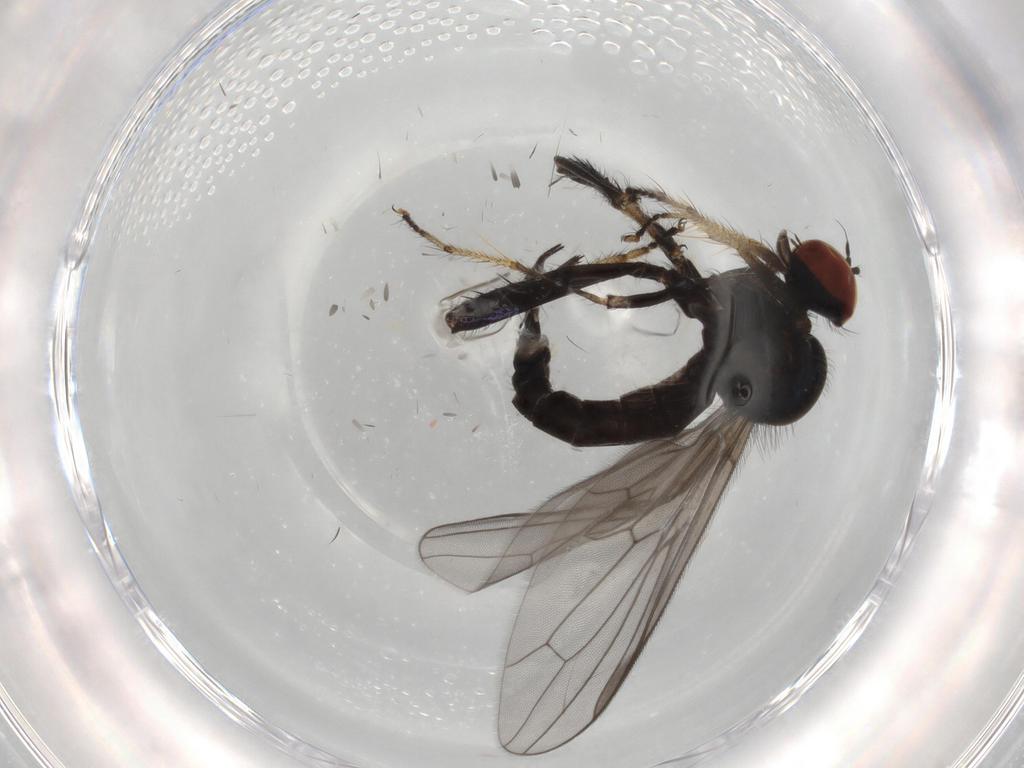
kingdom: Animalia
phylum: Arthropoda
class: Insecta
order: Diptera
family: Hybotidae
